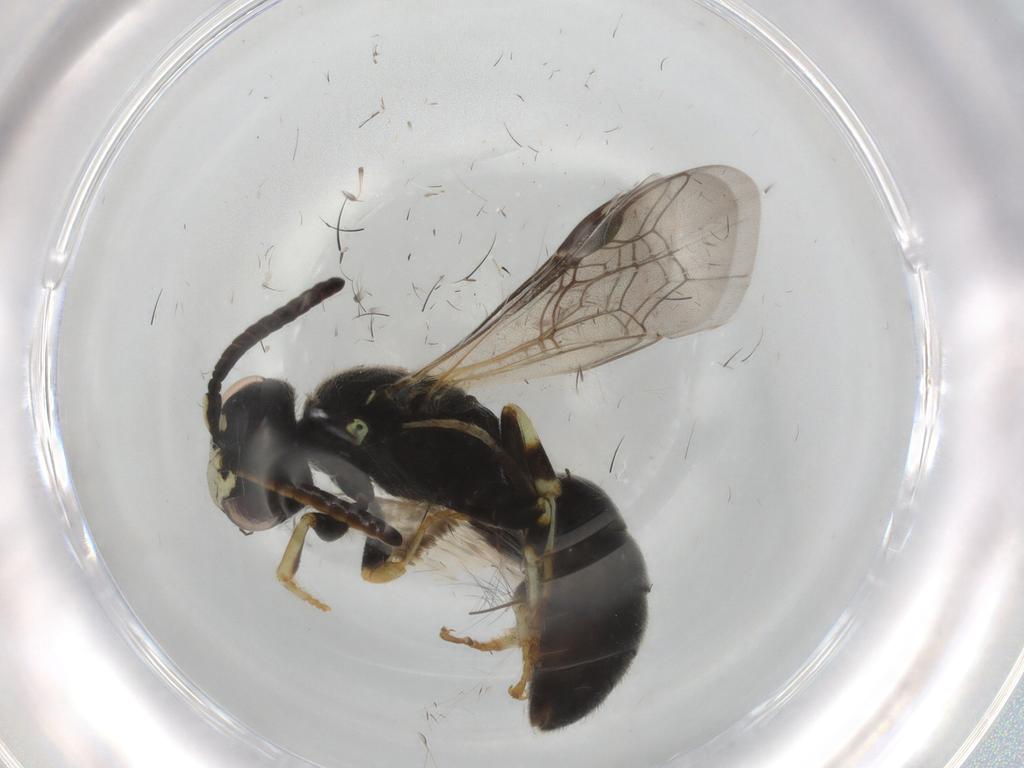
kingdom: Animalia
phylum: Arthropoda
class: Insecta
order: Hymenoptera
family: Colletidae
